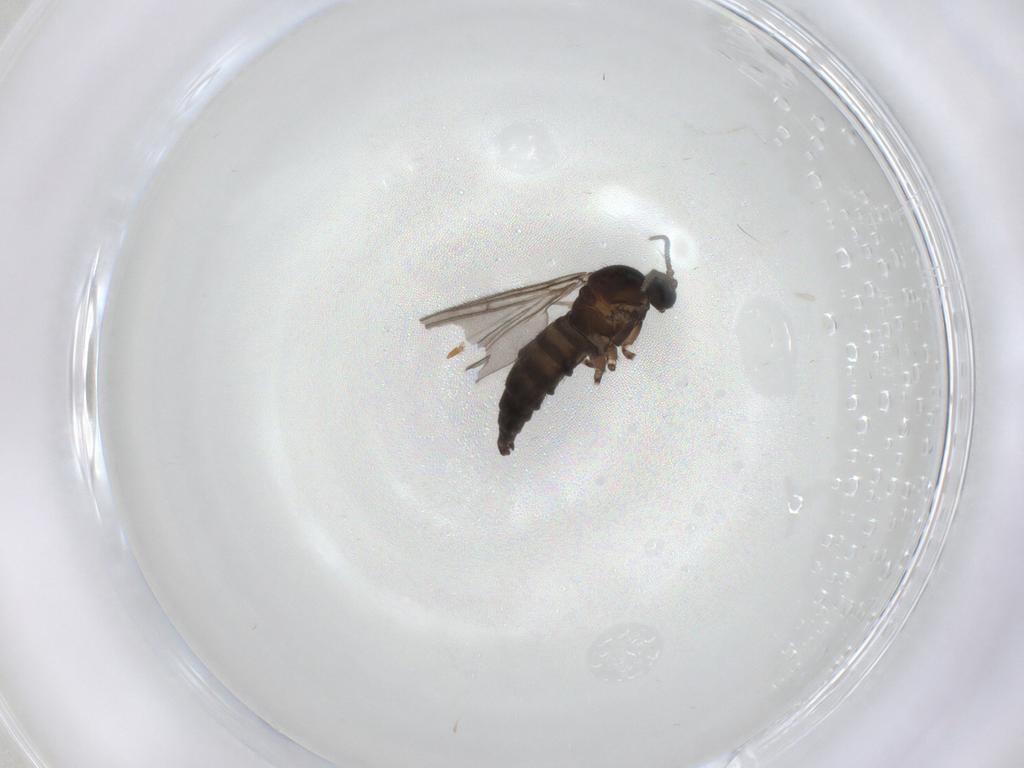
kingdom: Animalia
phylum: Arthropoda
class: Insecta
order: Diptera
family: Sciaridae
